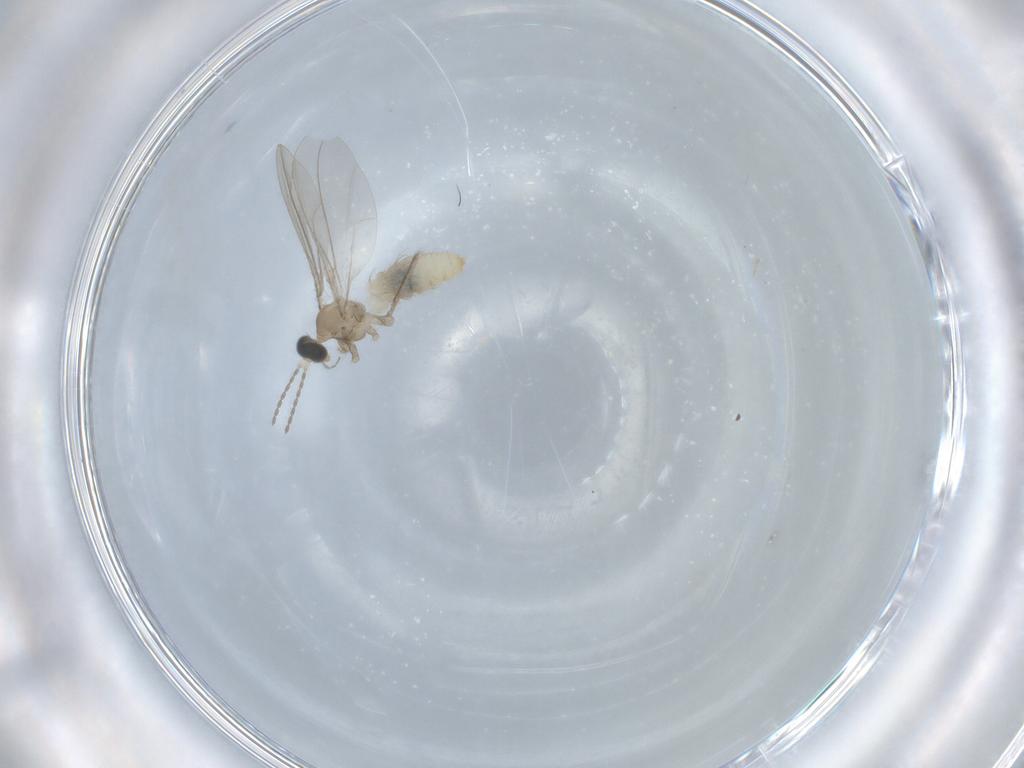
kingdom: Animalia
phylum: Arthropoda
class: Insecta
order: Diptera
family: Cecidomyiidae
